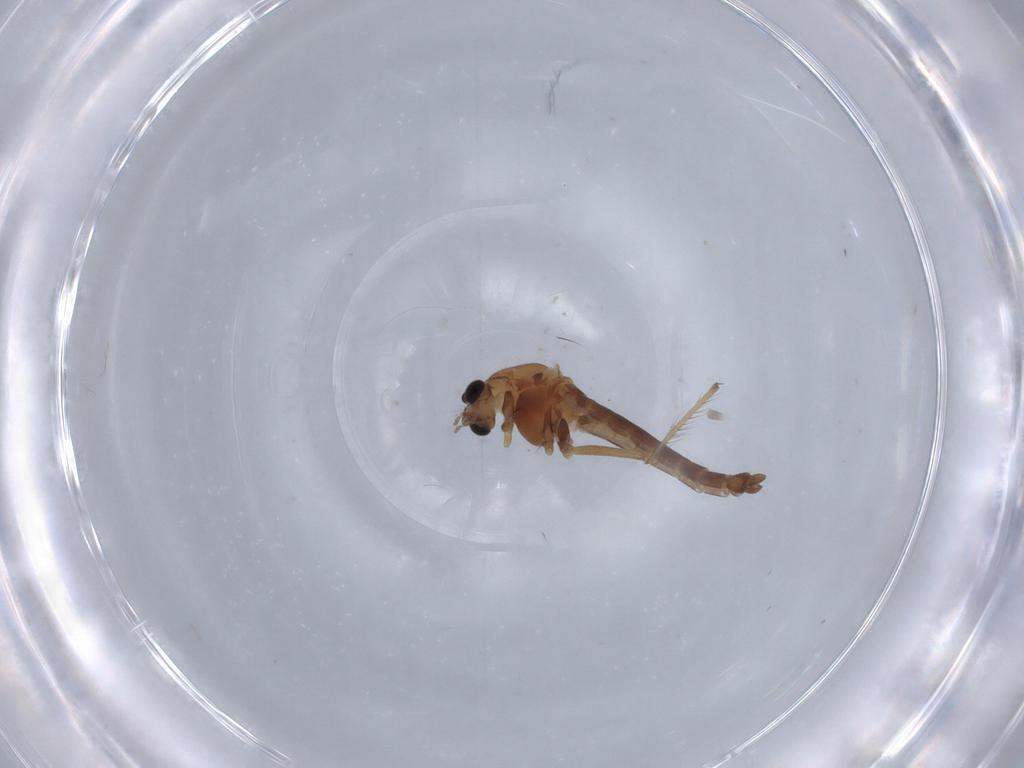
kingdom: Animalia
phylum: Arthropoda
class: Insecta
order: Diptera
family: Chironomidae
